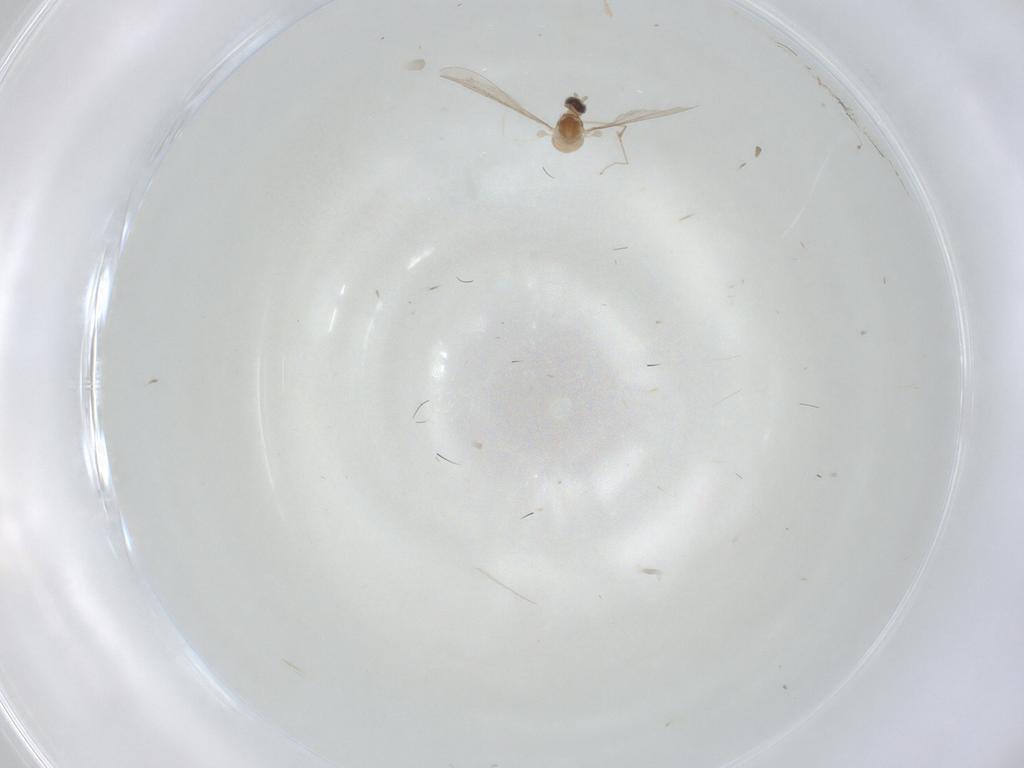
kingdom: Animalia
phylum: Arthropoda
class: Insecta
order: Diptera
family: Cecidomyiidae
